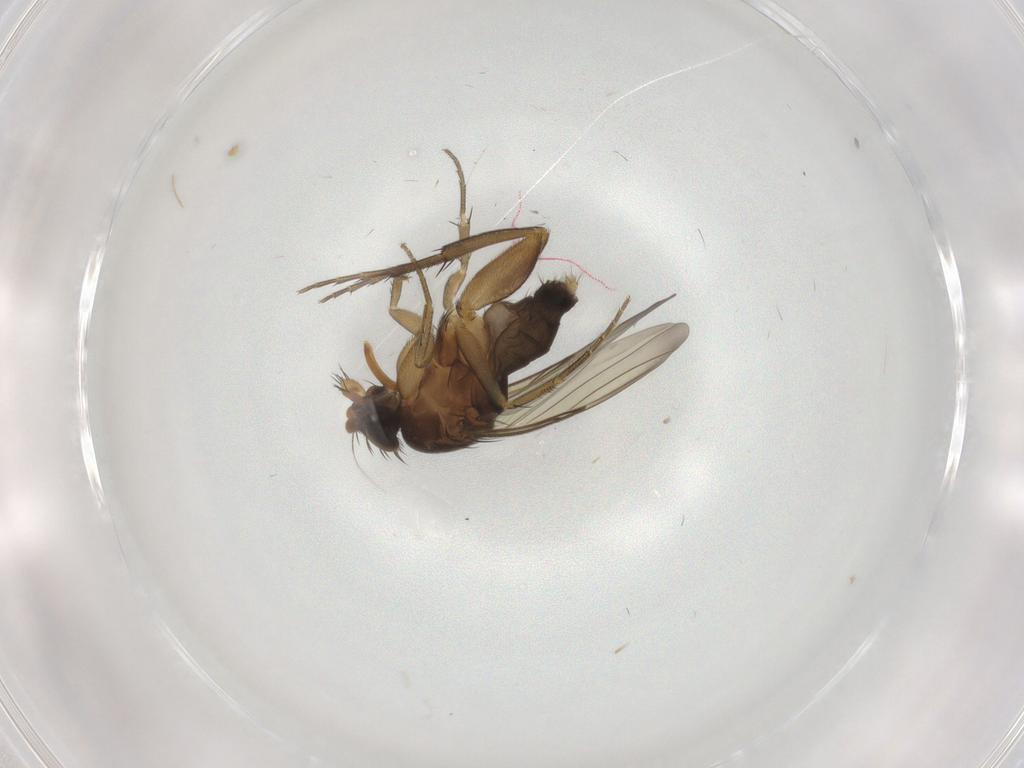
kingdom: Animalia
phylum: Arthropoda
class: Insecta
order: Diptera
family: Phoridae
